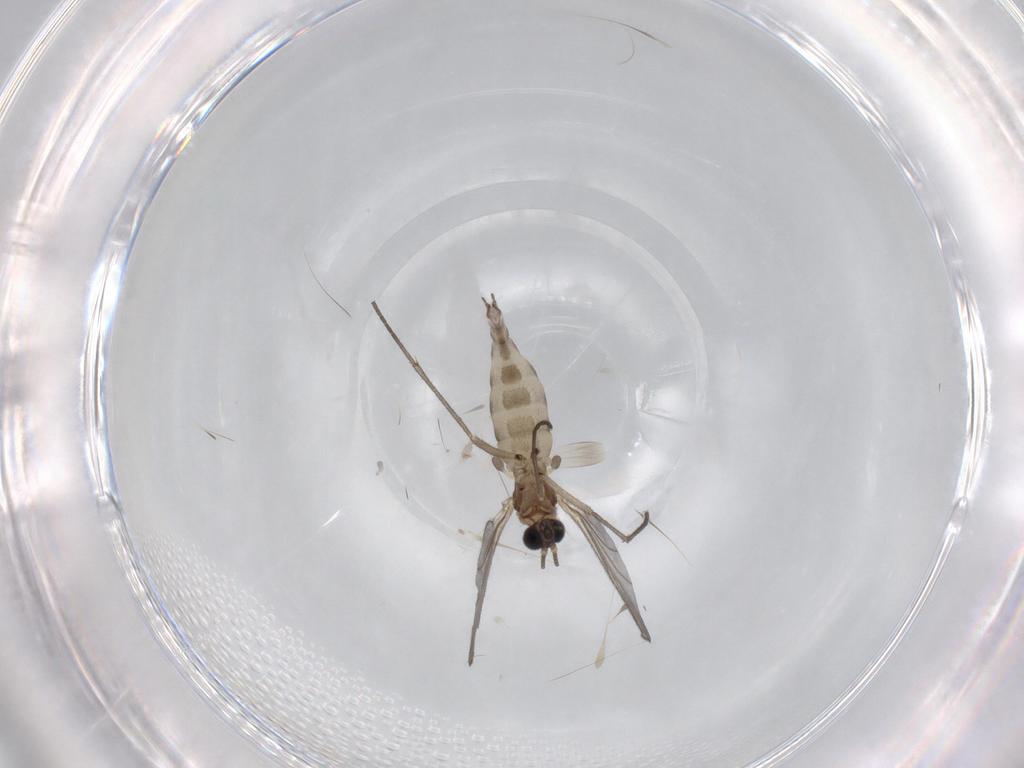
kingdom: Animalia
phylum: Arthropoda
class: Insecta
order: Diptera
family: Sciaridae
